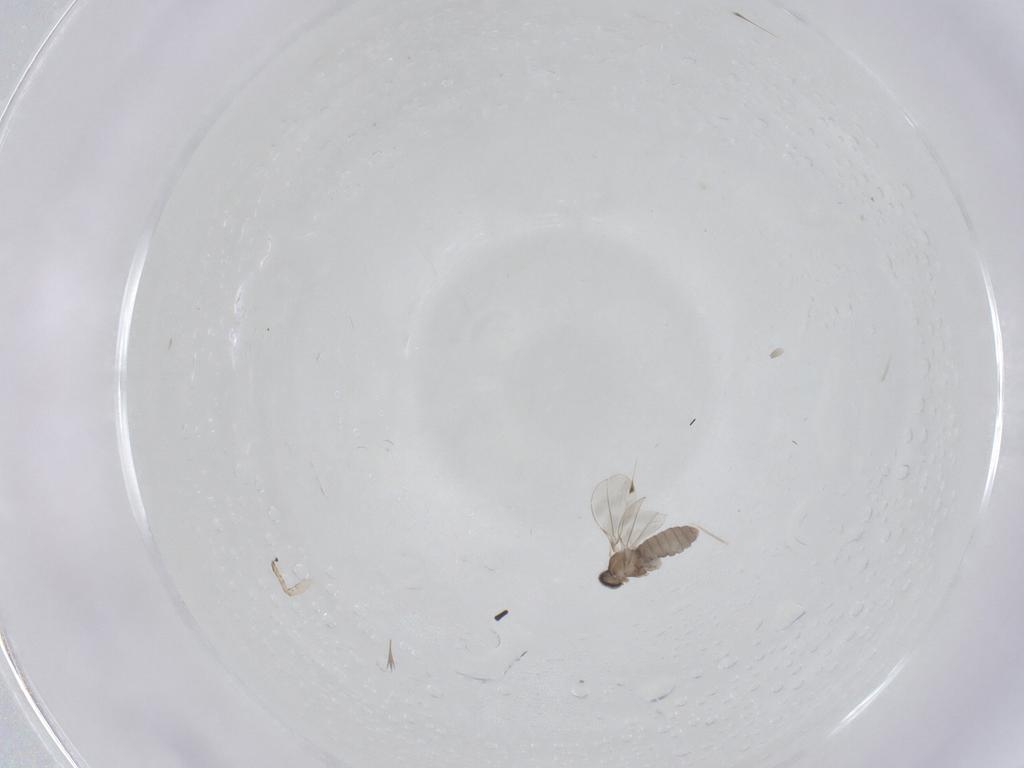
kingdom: Animalia
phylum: Arthropoda
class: Insecta
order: Diptera
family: Cecidomyiidae
